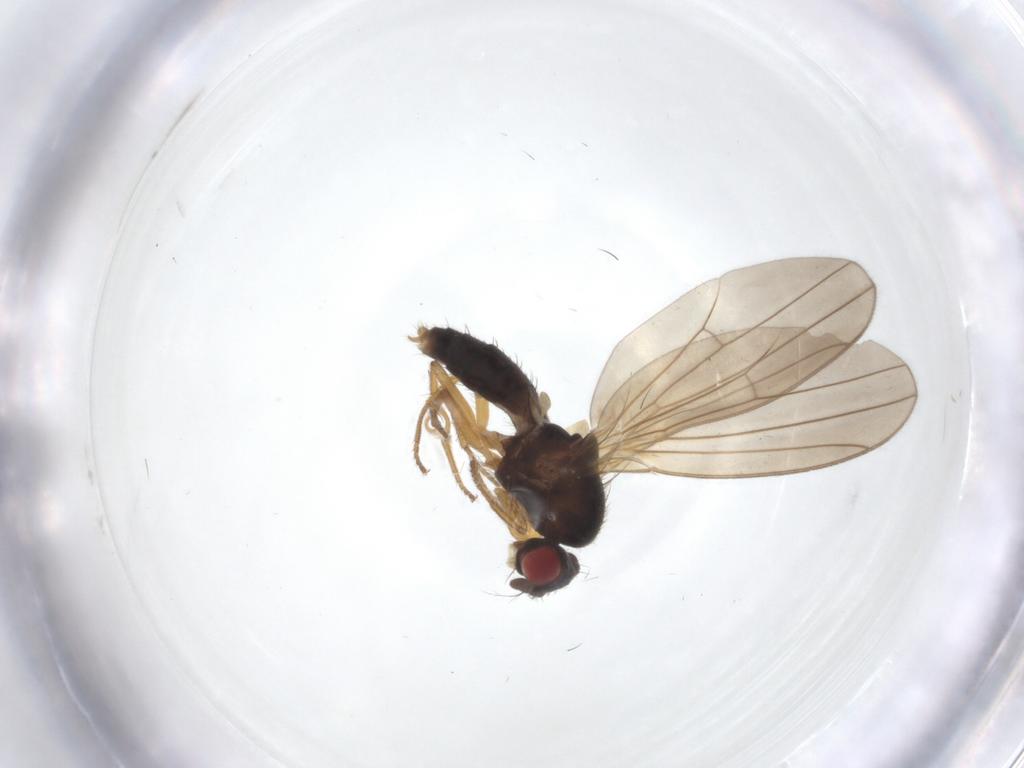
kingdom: Animalia
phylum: Arthropoda
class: Insecta
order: Diptera
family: Drosophilidae
